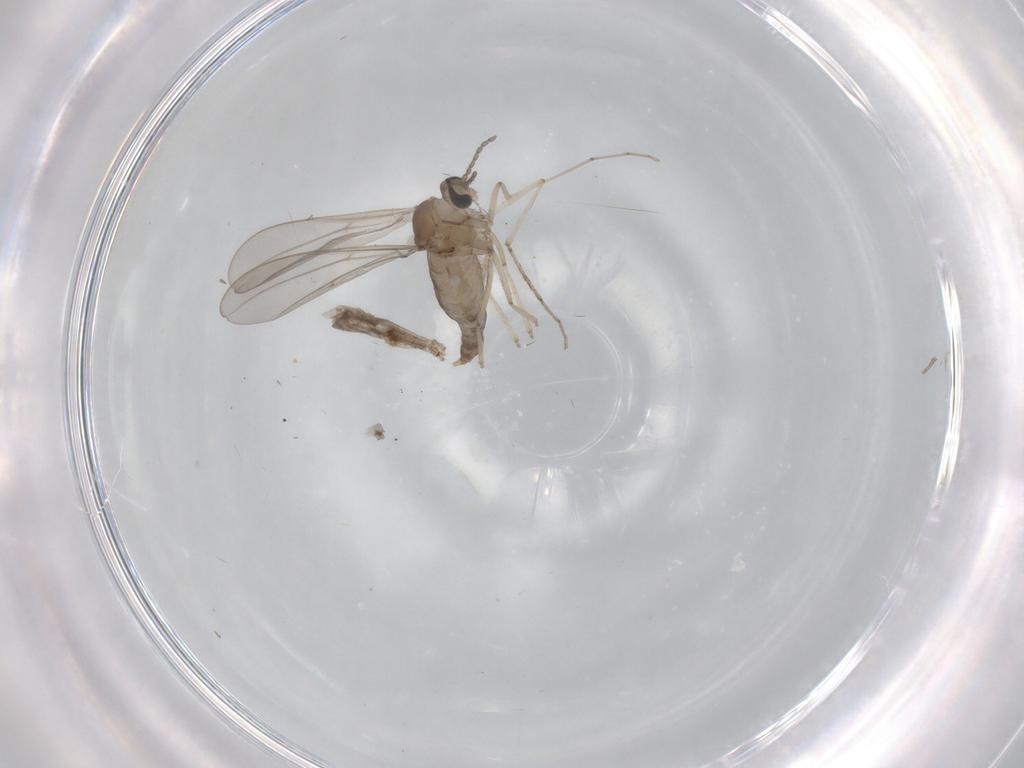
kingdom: Animalia
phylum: Arthropoda
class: Insecta
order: Diptera
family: Cecidomyiidae
